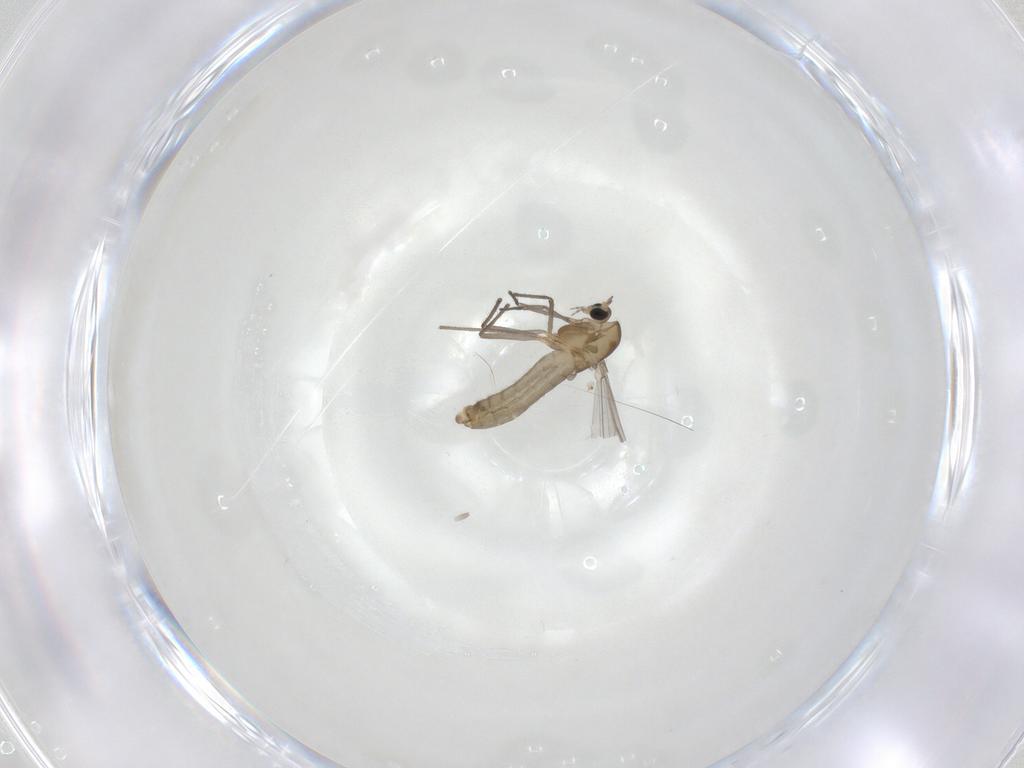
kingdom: Animalia
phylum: Arthropoda
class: Insecta
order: Diptera
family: Chironomidae
